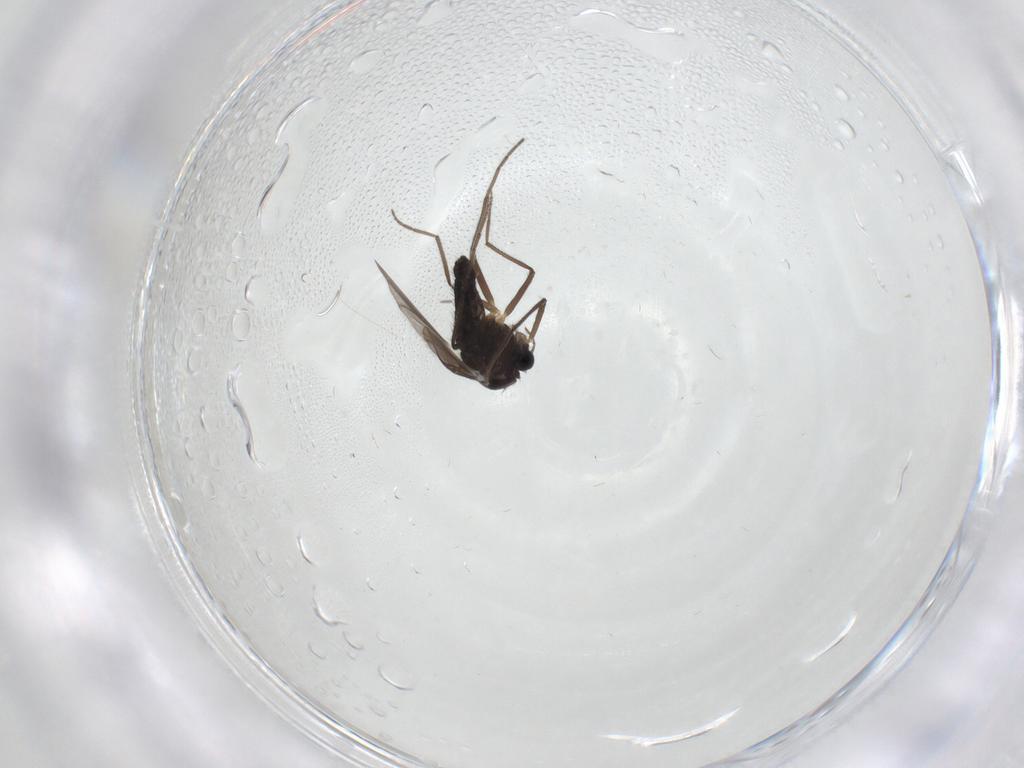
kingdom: Animalia
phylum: Arthropoda
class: Insecta
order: Diptera
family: Chironomidae
